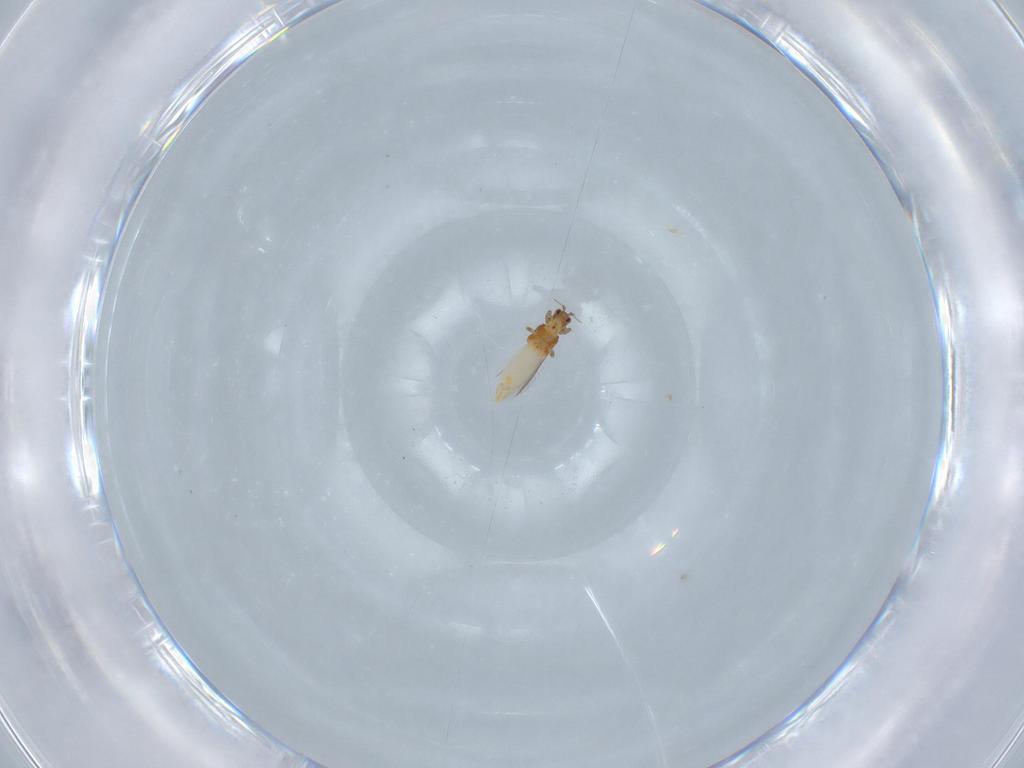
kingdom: Animalia
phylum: Arthropoda
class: Insecta
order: Thysanoptera
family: Thripidae
